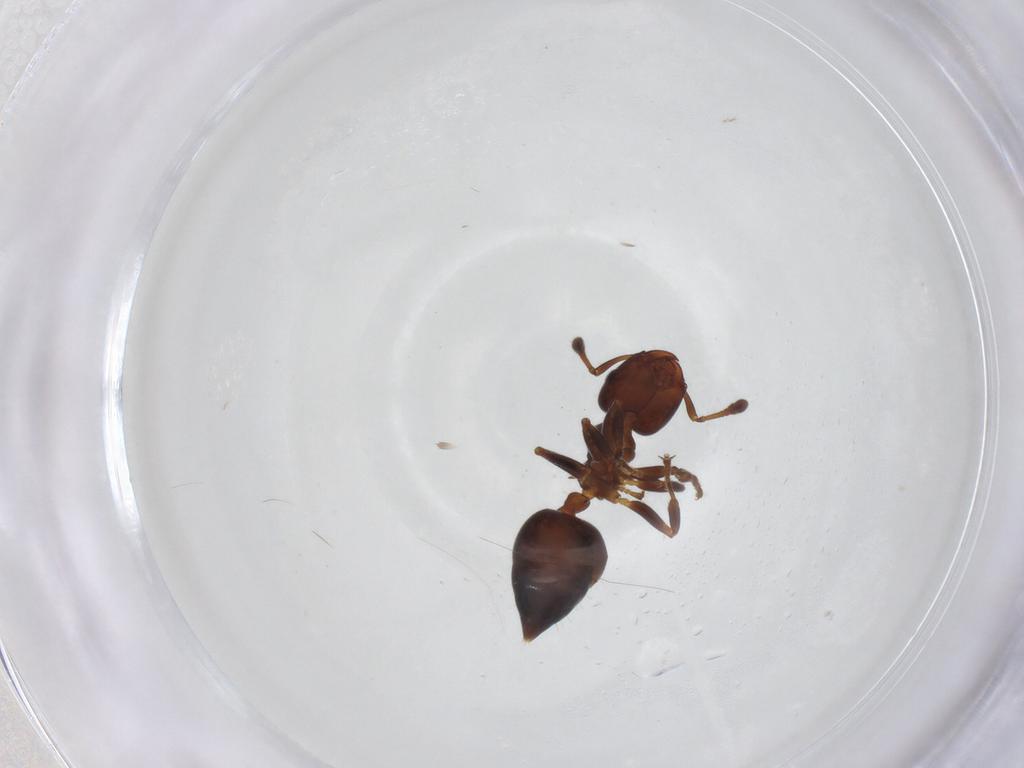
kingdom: Animalia
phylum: Arthropoda
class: Insecta
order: Hymenoptera
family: Formicidae
